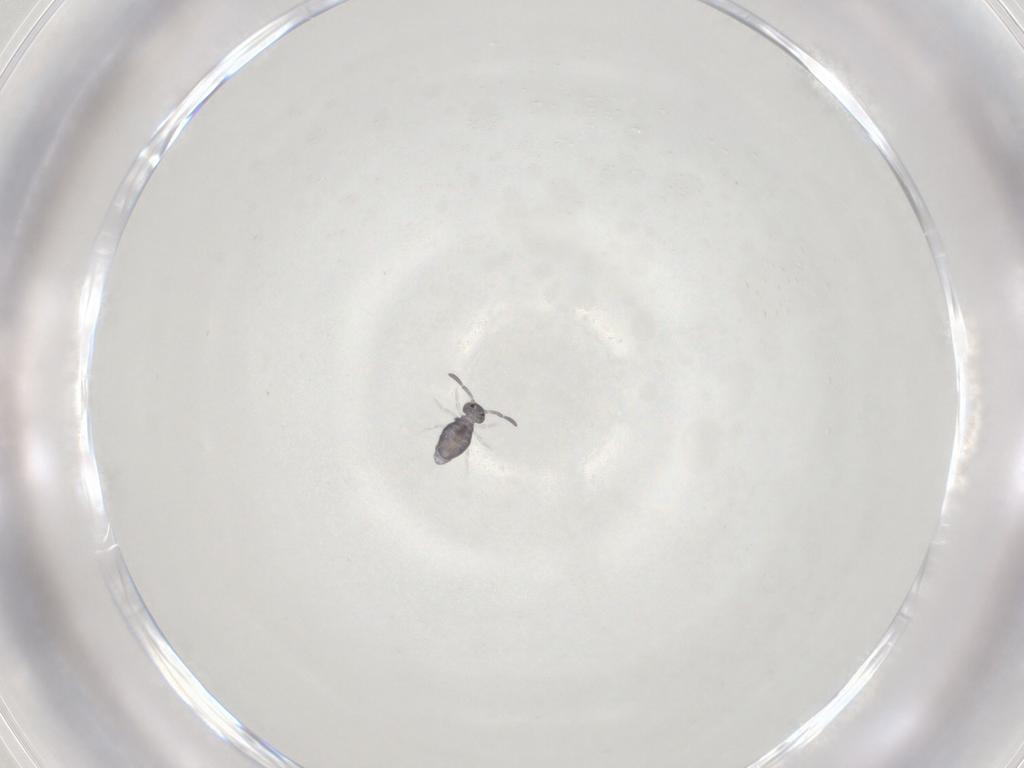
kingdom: Animalia
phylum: Arthropoda
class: Collembola
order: Symphypleona
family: Katiannidae
